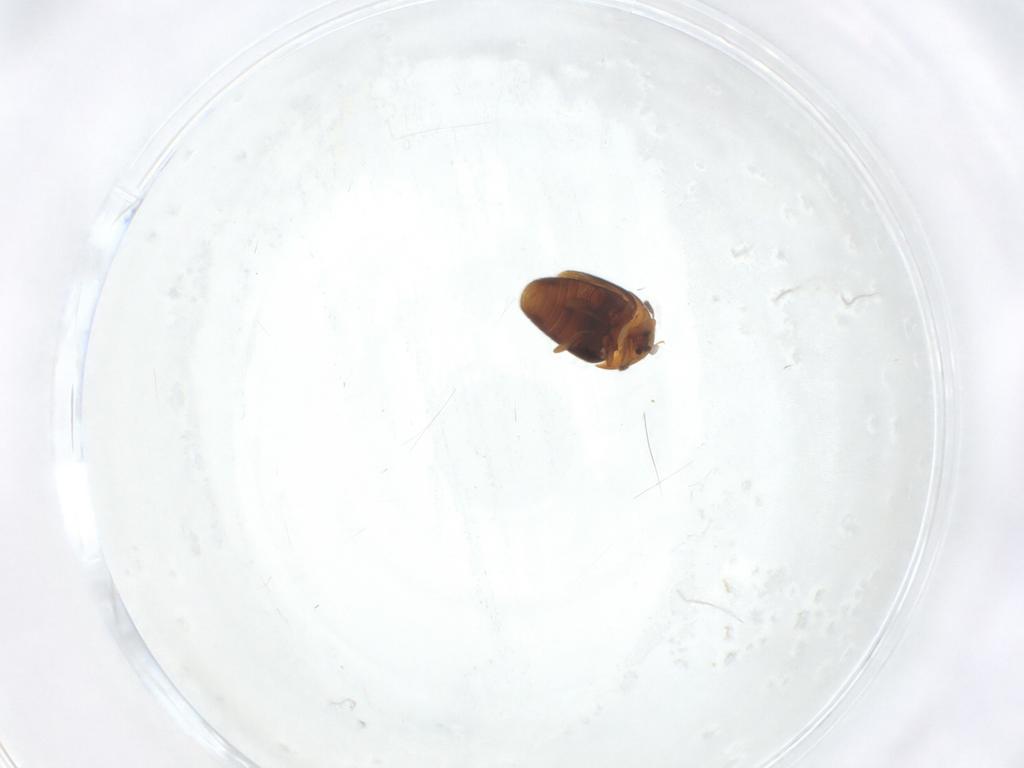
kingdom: Animalia
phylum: Arthropoda
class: Insecta
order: Coleoptera
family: Corylophidae
